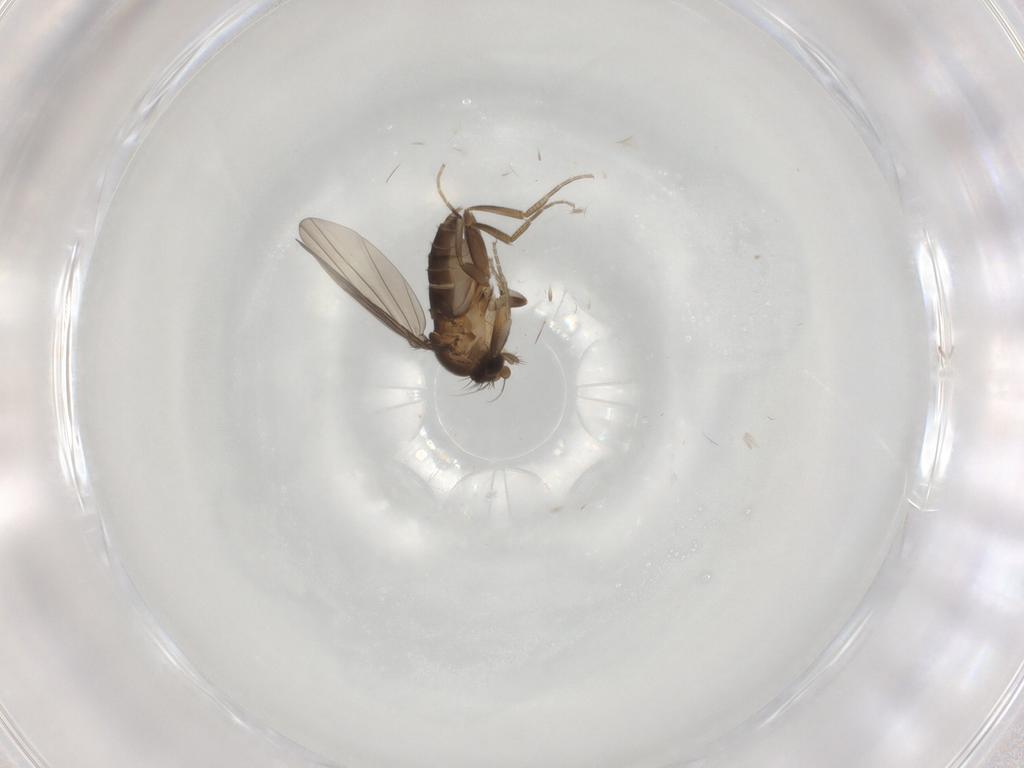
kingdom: Animalia
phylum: Arthropoda
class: Insecta
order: Diptera
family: Phoridae
